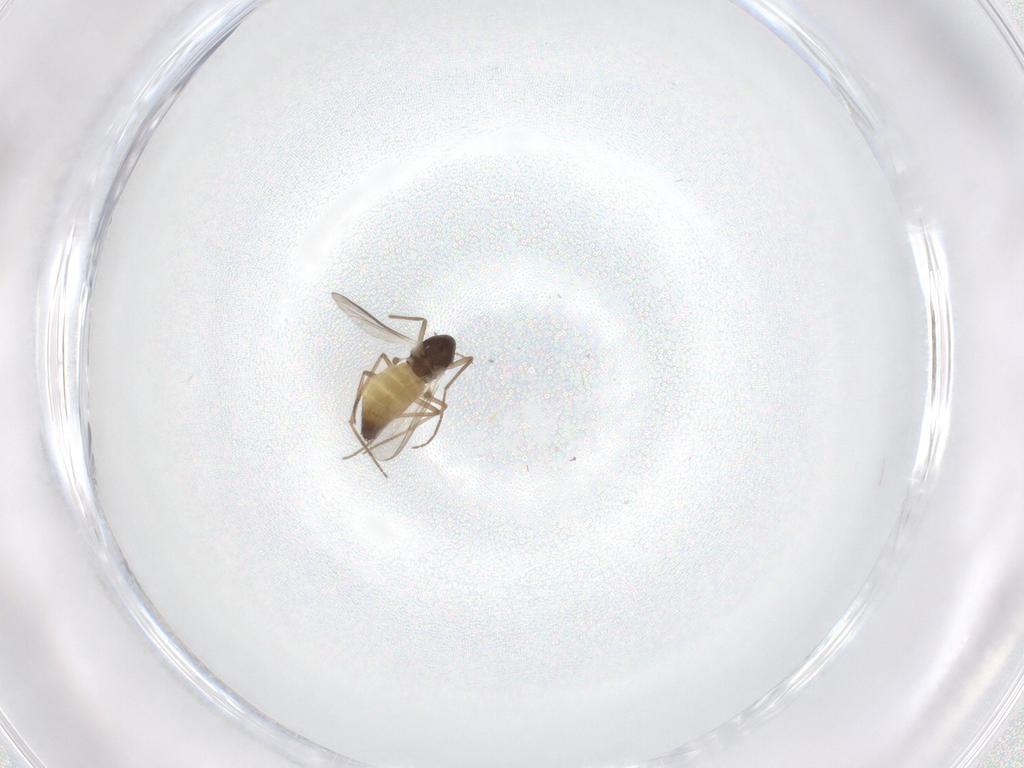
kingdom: Animalia
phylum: Arthropoda
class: Insecta
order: Diptera
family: Chironomidae
